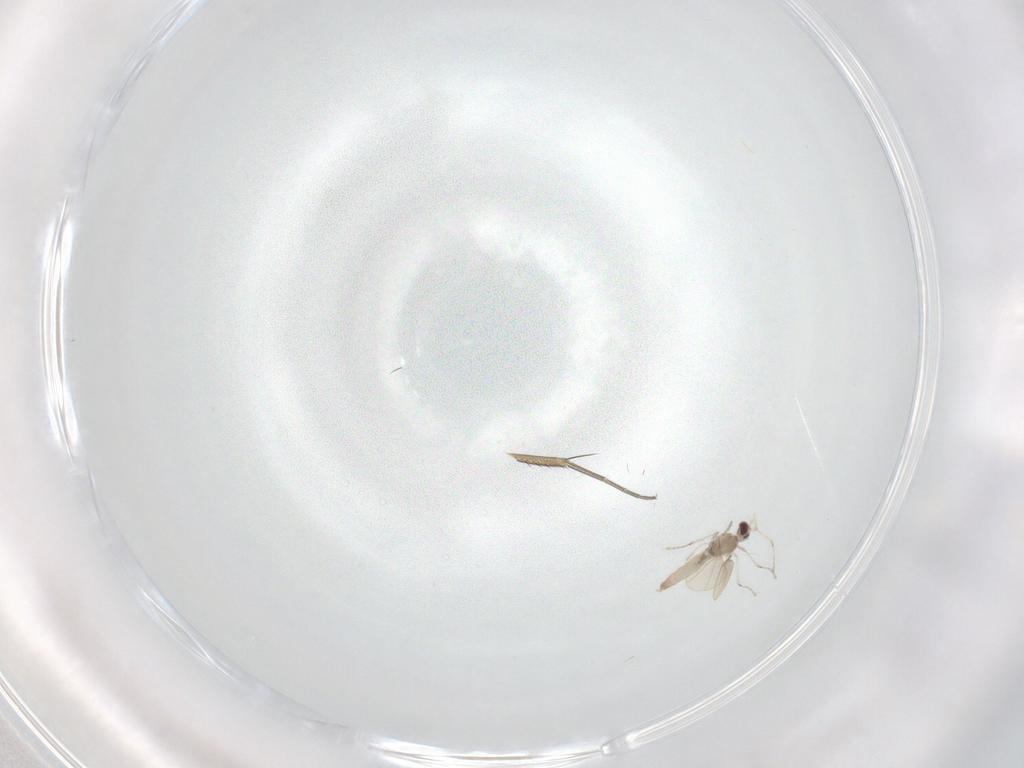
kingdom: Animalia
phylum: Arthropoda
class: Insecta
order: Diptera
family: Cecidomyiidae
